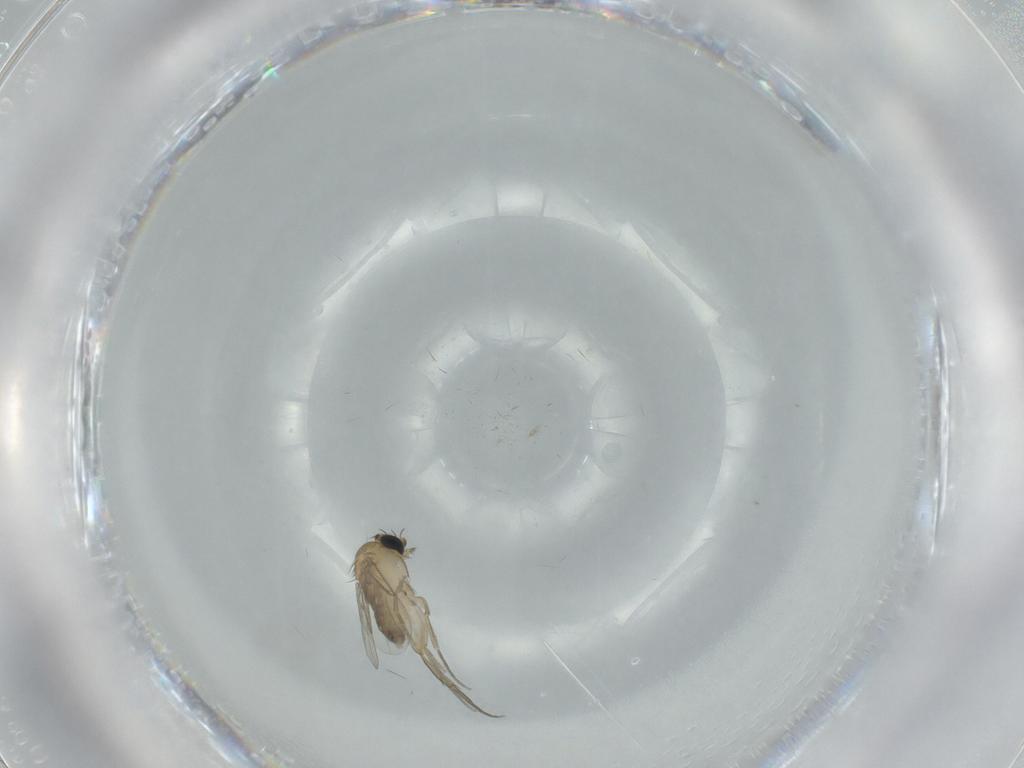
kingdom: Animalia
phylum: Arthropoda
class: Insecta
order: Diptera
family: Phoridae
